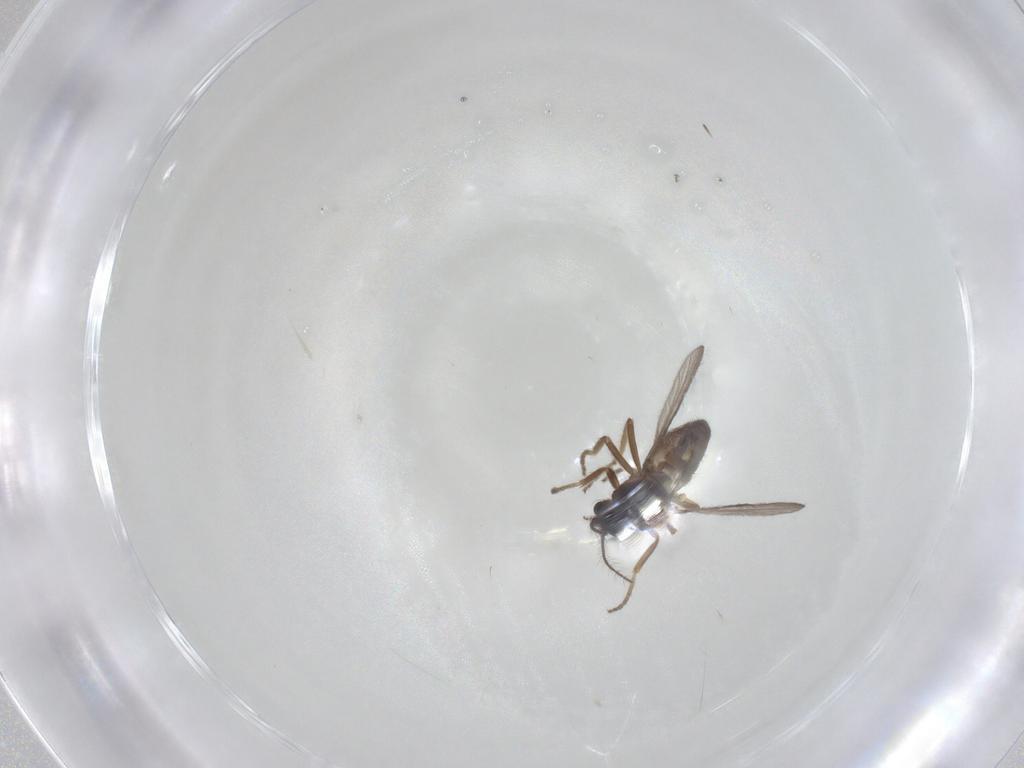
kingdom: Animalia
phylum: Arthropoda
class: Insecta
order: Diptera
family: Ceratopogonidae
